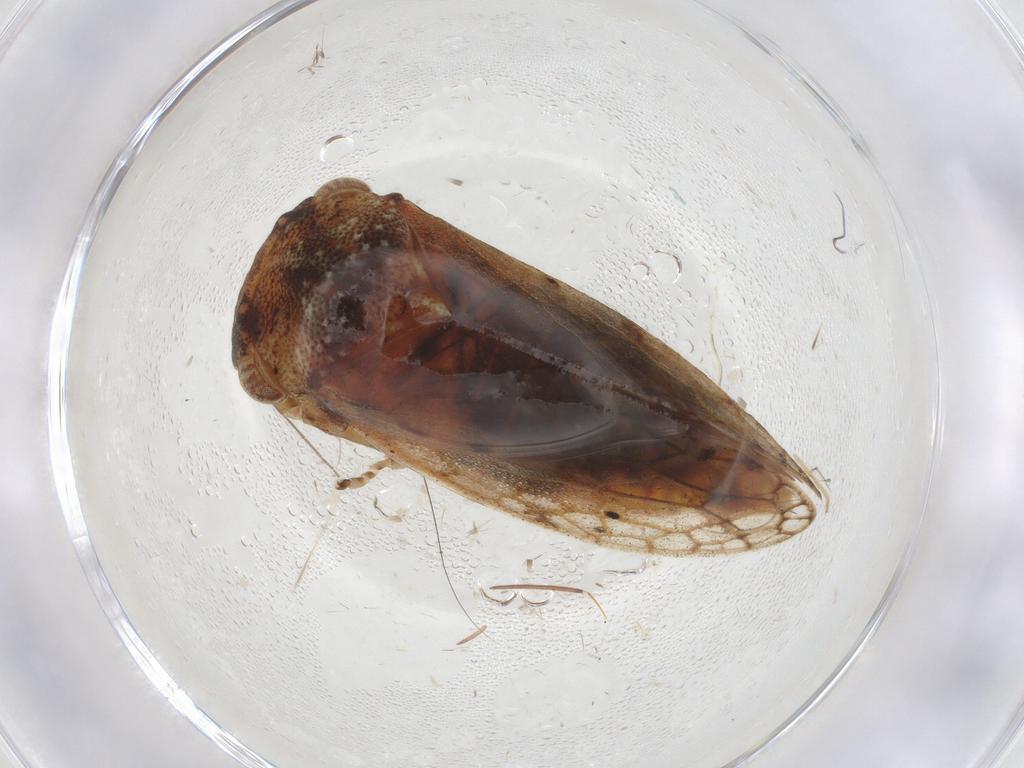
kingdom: Animalia
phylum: Arthropoda
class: Insecta
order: Hemiptera
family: Cicadellidae
